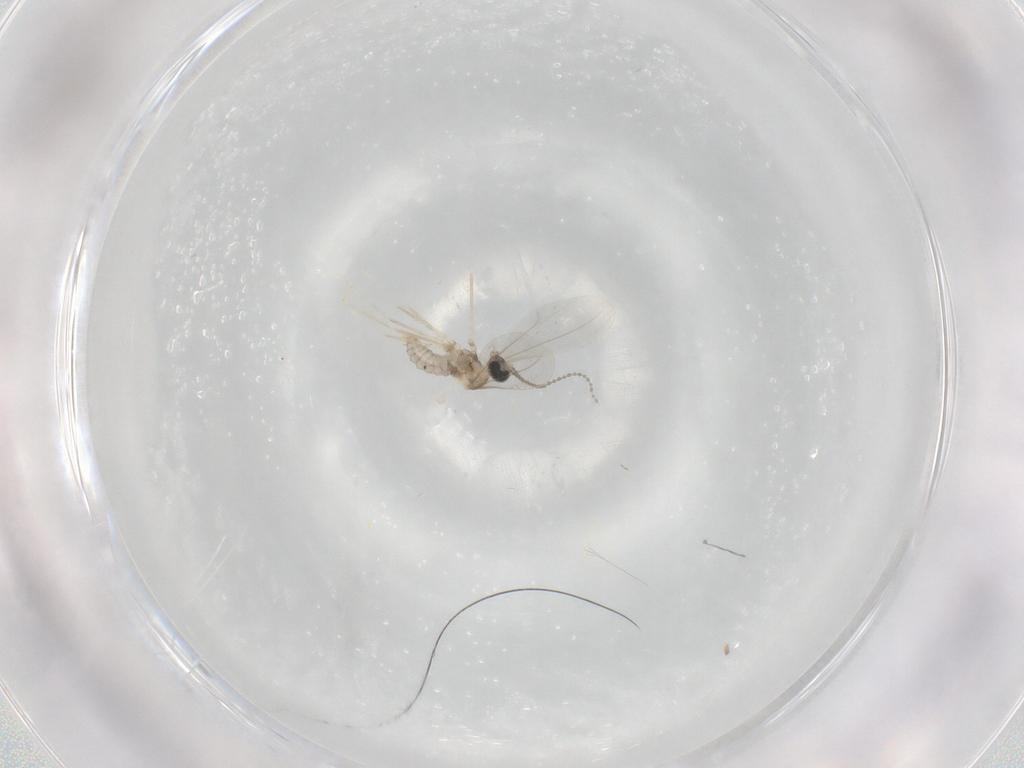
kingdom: Animalia
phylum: Arthropoda
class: Insecta
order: Diptera
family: Cecidomyiidae
